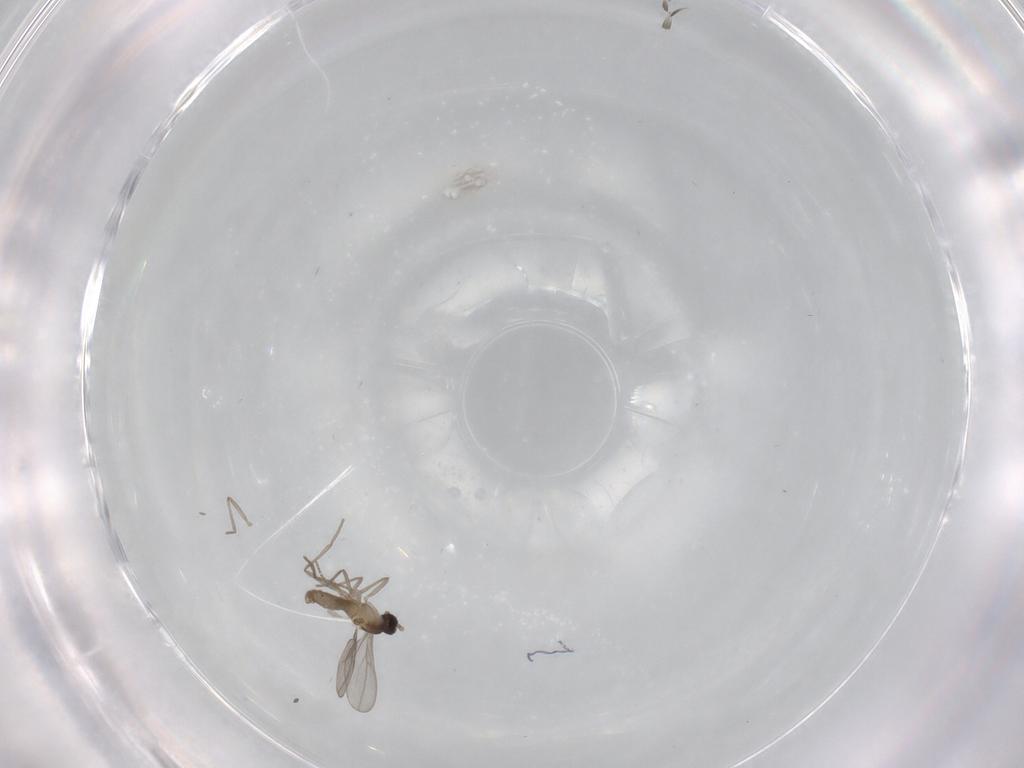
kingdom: Animalia
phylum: Arthropoda
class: Insecta
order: Diptera
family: Cecidomyiidae
